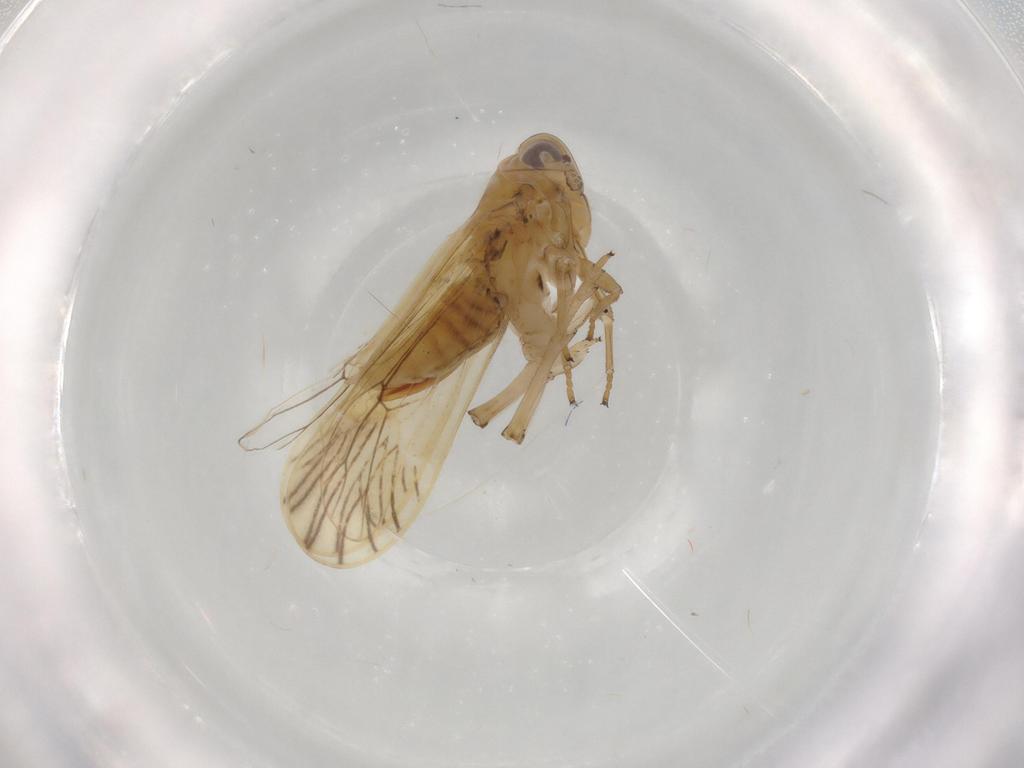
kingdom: Animalia
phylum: Arthropoda
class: Insecta
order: Hemiptera
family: Delphacidae
